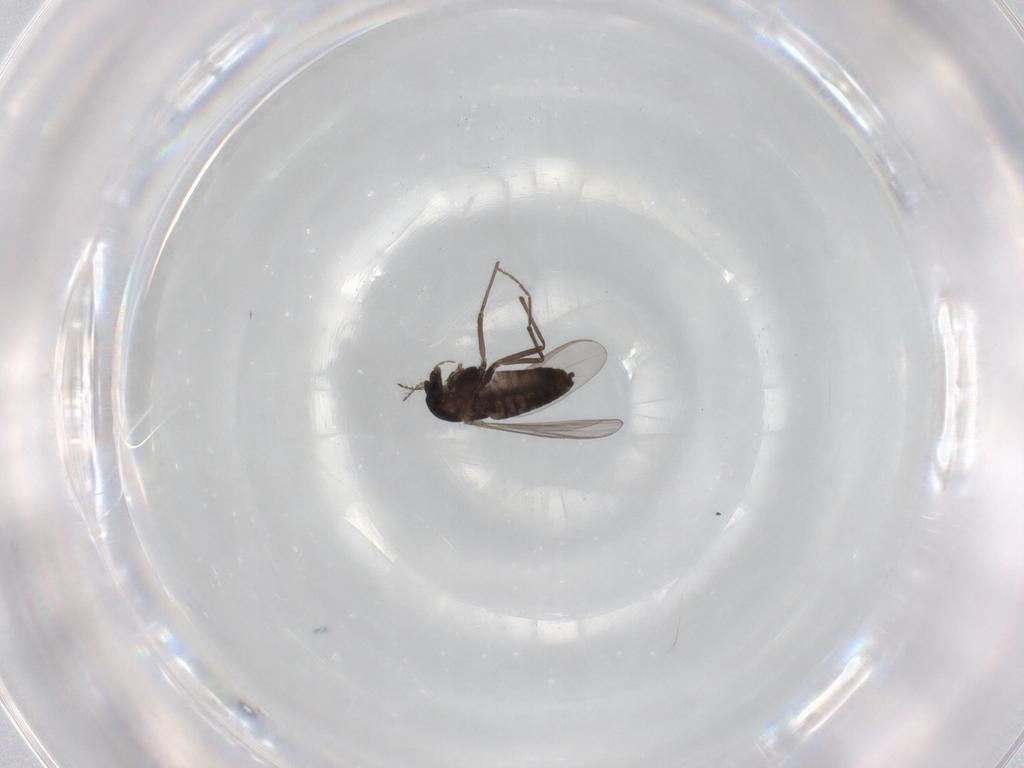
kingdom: Animalia
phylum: Arthropoda
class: Insecta
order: Diptera
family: Chironomidae
